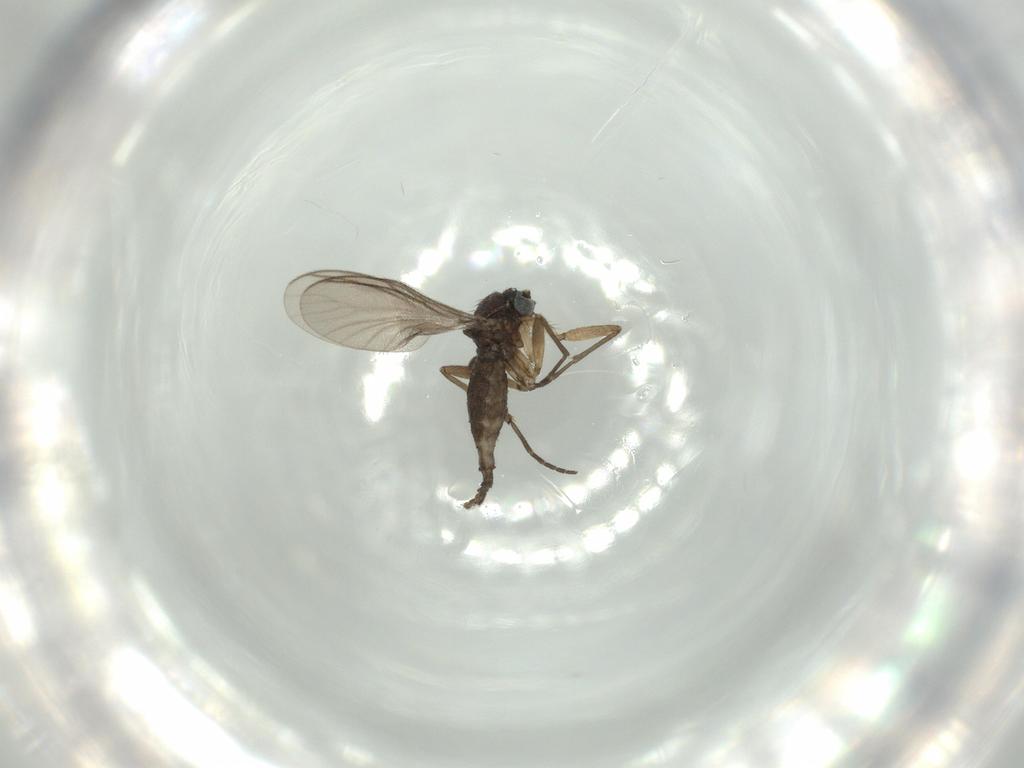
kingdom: Animalia
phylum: Arthropoda
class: Insecta
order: Diptera
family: Sciaridae
